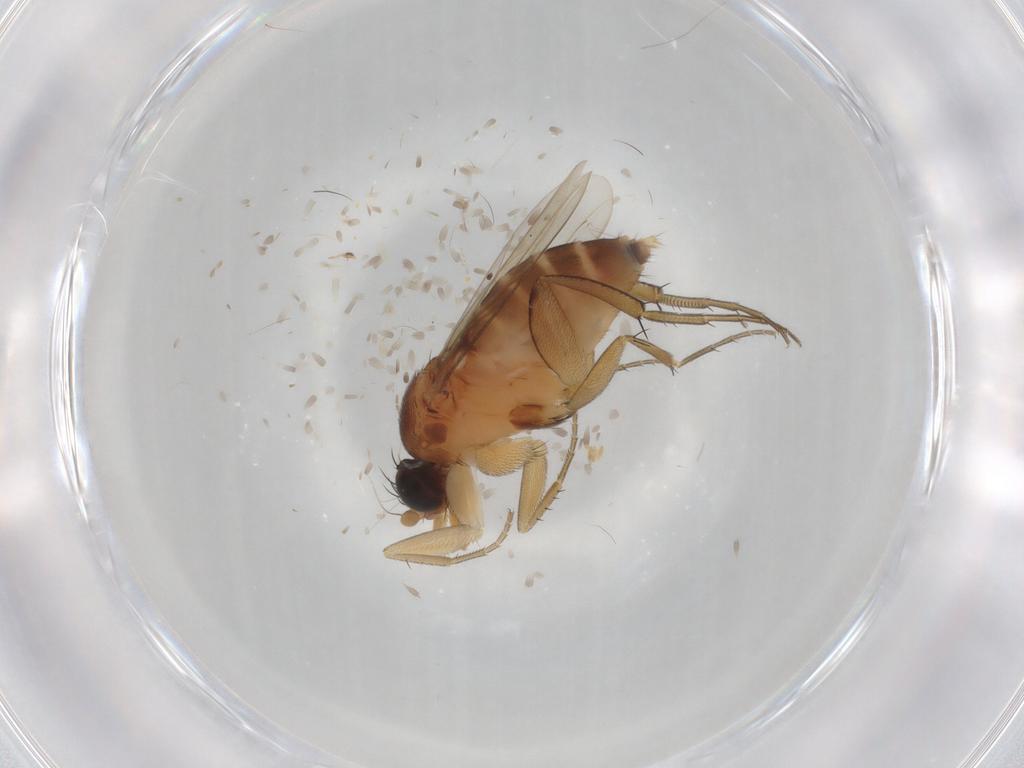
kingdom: Animalia
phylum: Arthropoda
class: Insecta
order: Diptera
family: Phoridae
